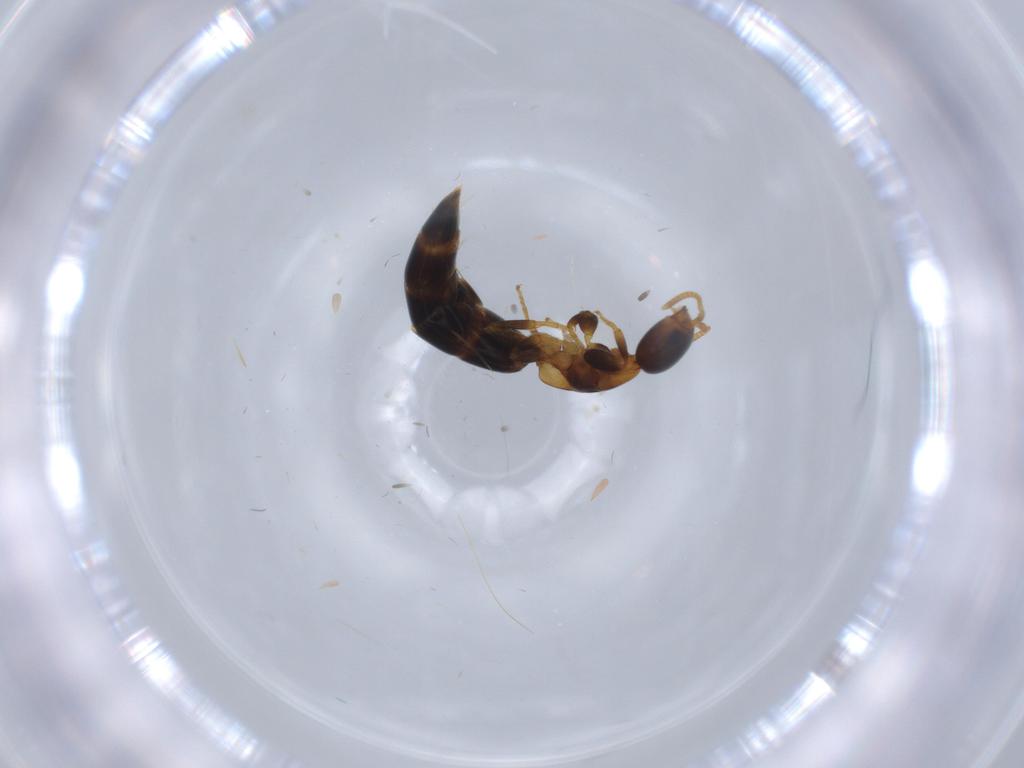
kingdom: Animalia
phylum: Arthropoda
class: Insecta
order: Hymenoptera
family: Bethylidae
